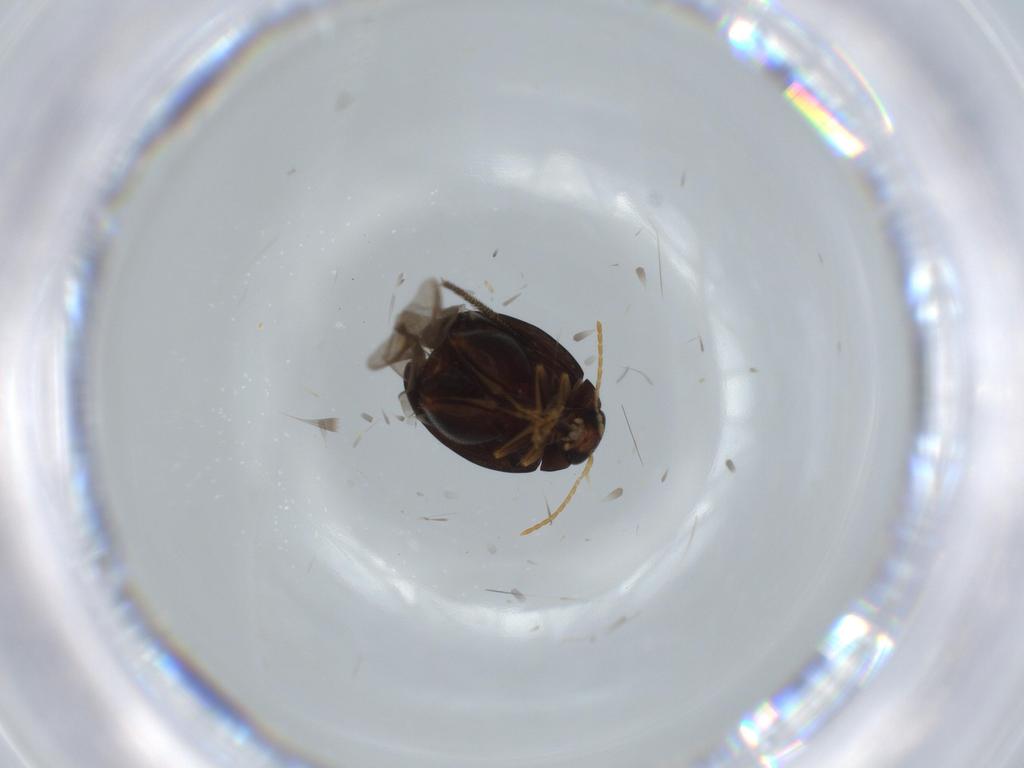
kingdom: Animalia
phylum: Arthropoda
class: Insecta
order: Coleoptera
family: Chrysomelidae
